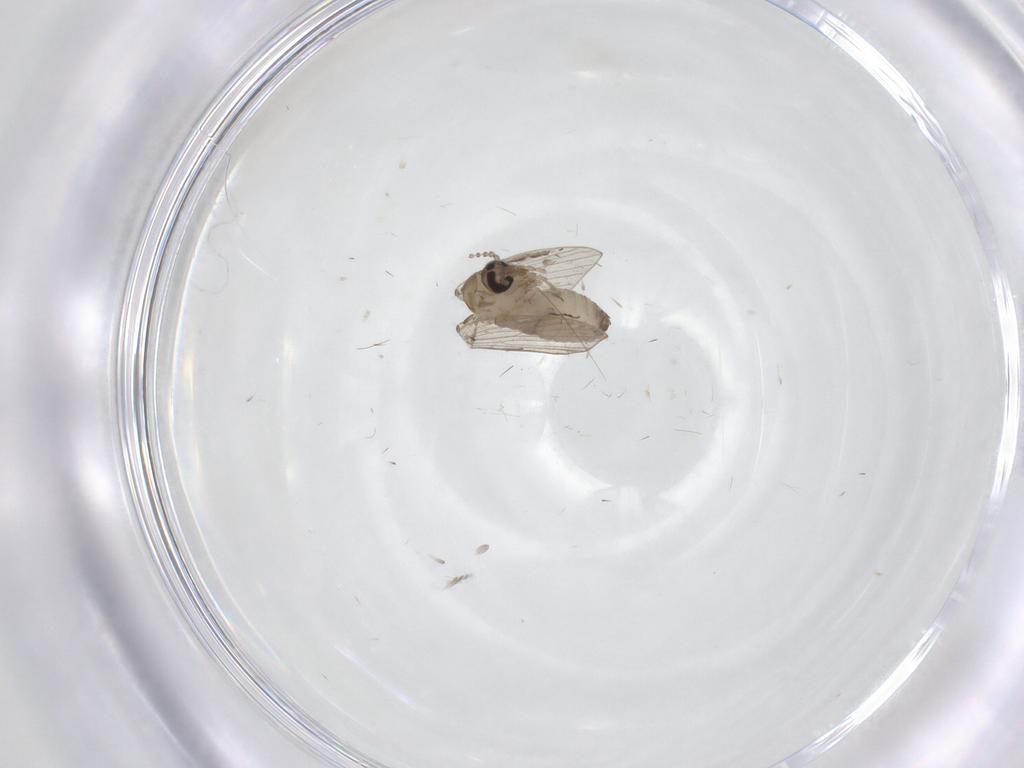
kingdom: Animalia
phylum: Arthropoda
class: Insecta
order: Diptera
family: Psychodidae
